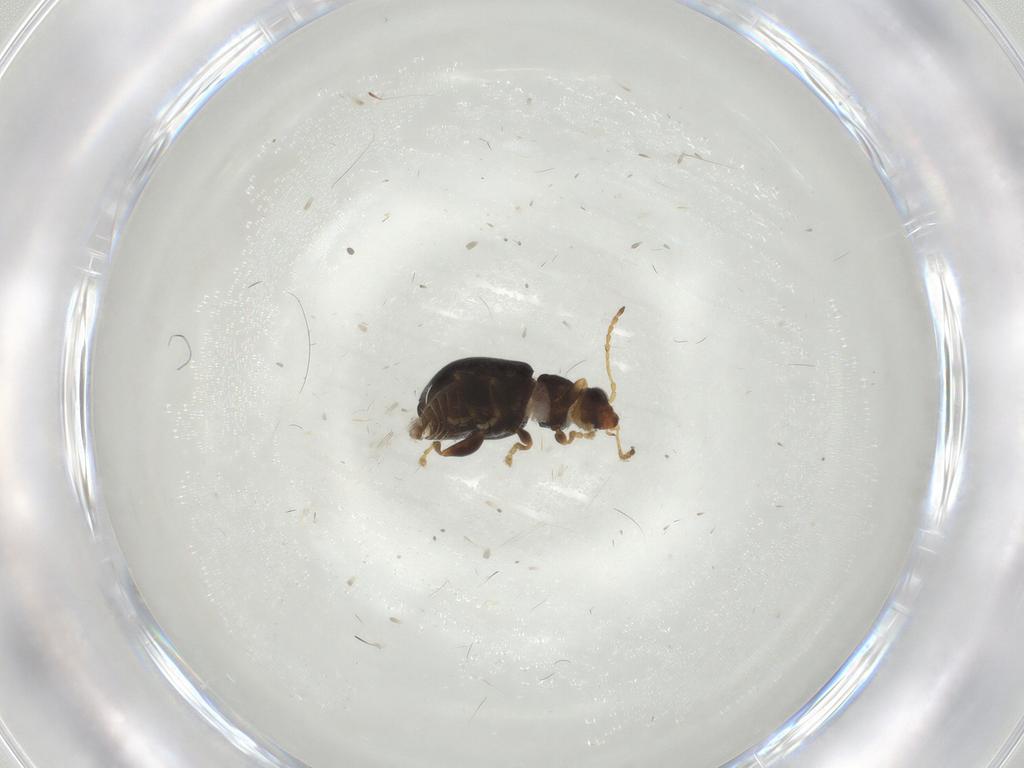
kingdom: Animalia
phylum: Arthropoda
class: Insecta
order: Coleoptera
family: Chrysomelidae
